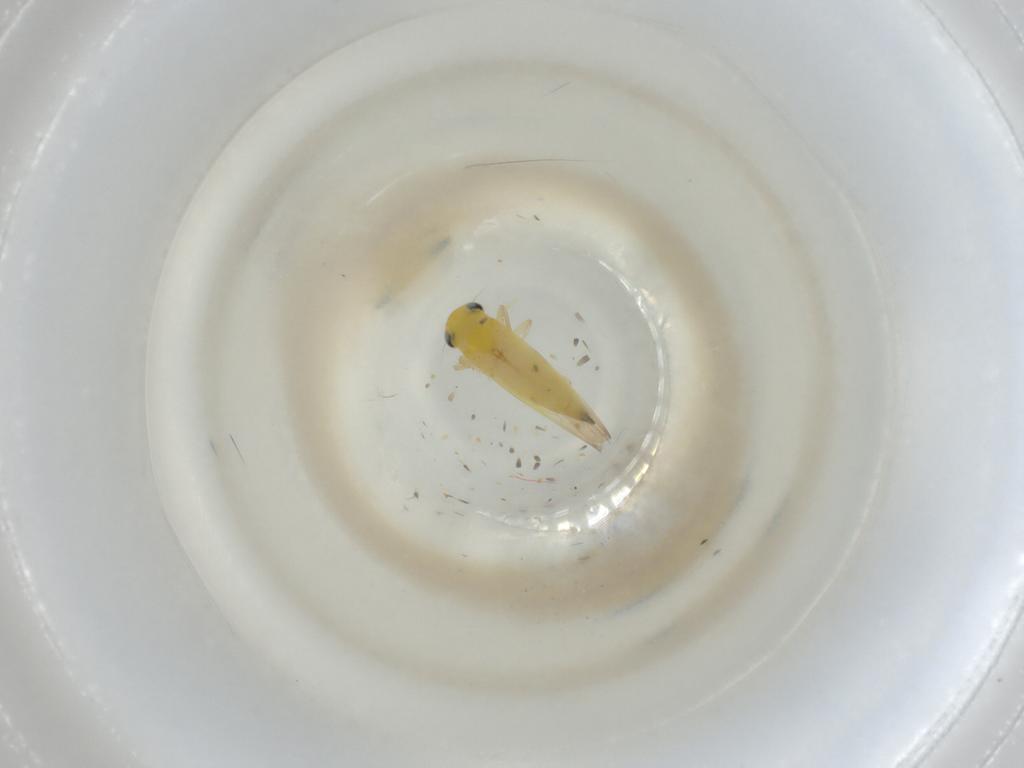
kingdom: Animalia
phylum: Arthropoda
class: Insecta
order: Hemiptera
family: Cicadellidae
